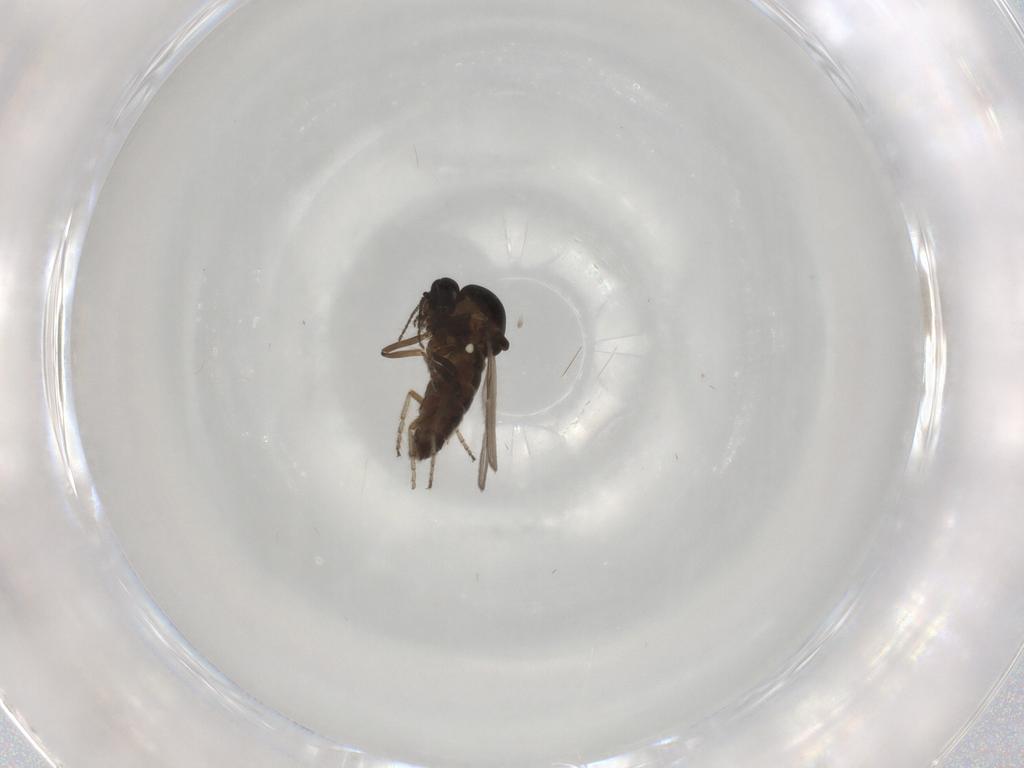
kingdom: Animalia
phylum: Arthropoda
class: Insecta
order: Diptera
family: Ceratopogonidae
